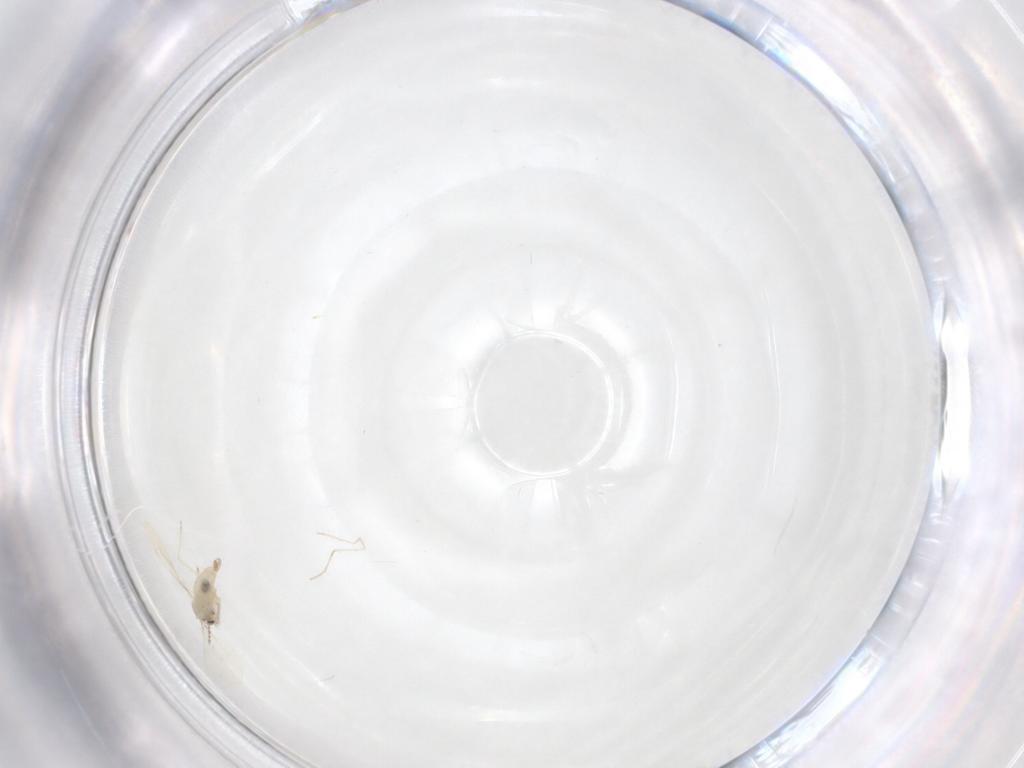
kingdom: Animalia
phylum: Arthropoda
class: Insecta
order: Diptera
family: Cecidomyiidae
